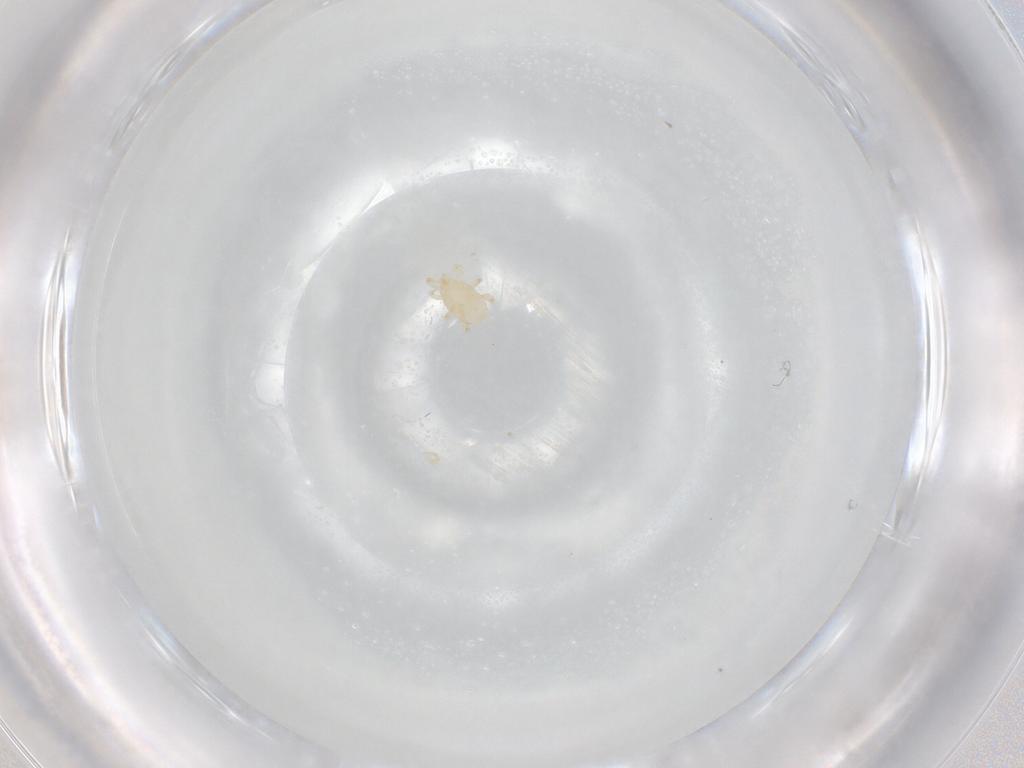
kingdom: Animalia
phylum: Arthropoda
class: Arachnida
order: Mesostigmata
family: Melicharidae
